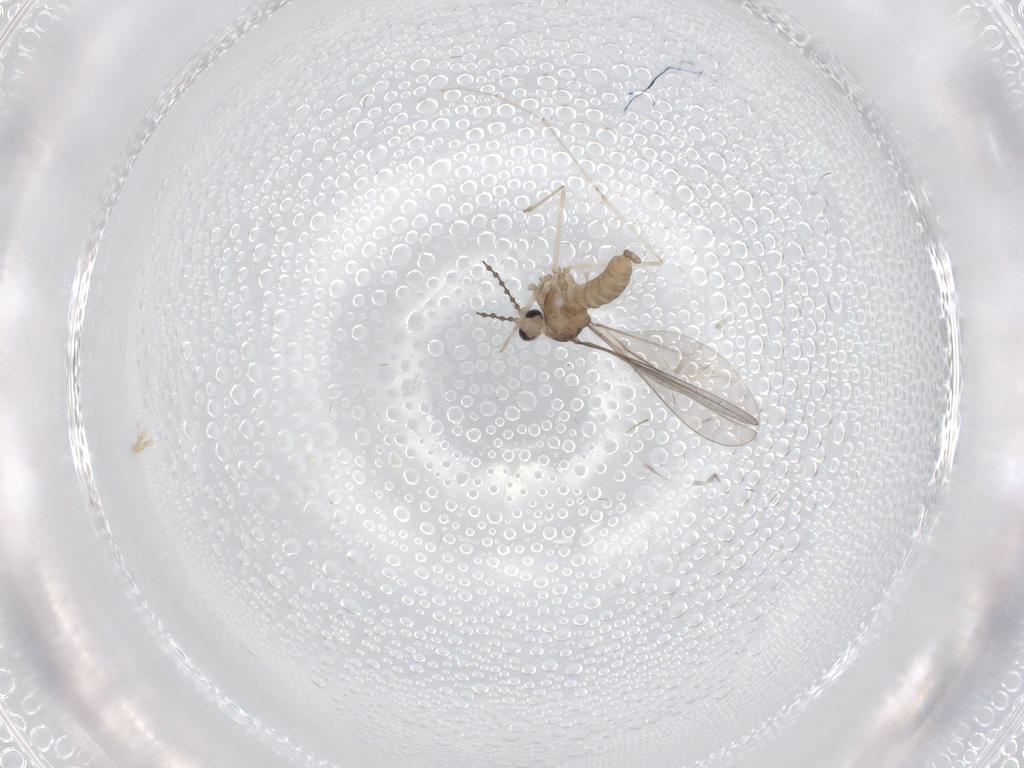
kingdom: Animalia
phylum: Arthropoda
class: Insecta
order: Diptera
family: Cecidomyiidae
